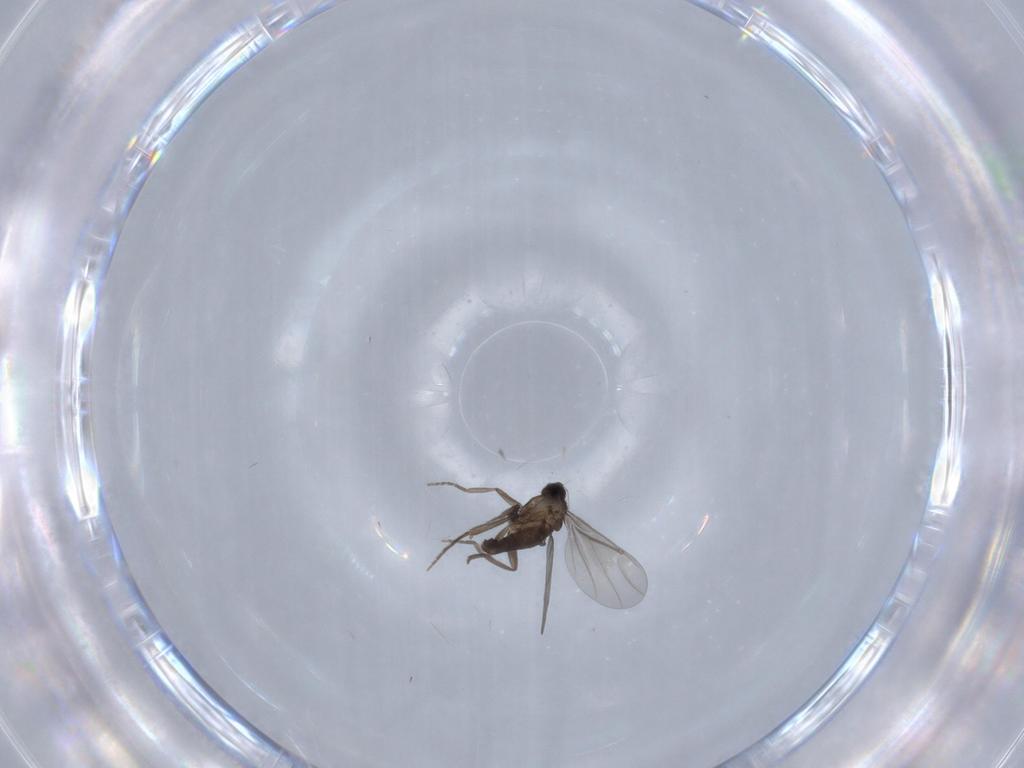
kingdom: Animalia
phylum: Arthropoda
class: Insecta
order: Diptera
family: Phoridae
